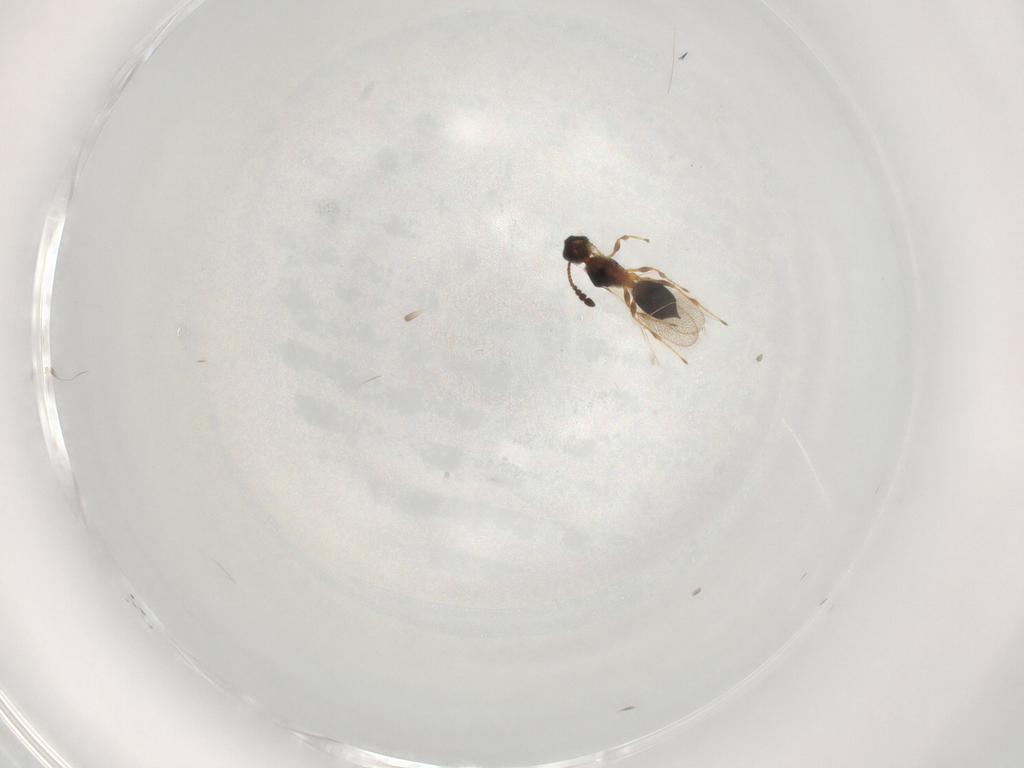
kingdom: Animalia
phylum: Arthropoda
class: Insecta
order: Hymenoptera
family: Diapriidae
